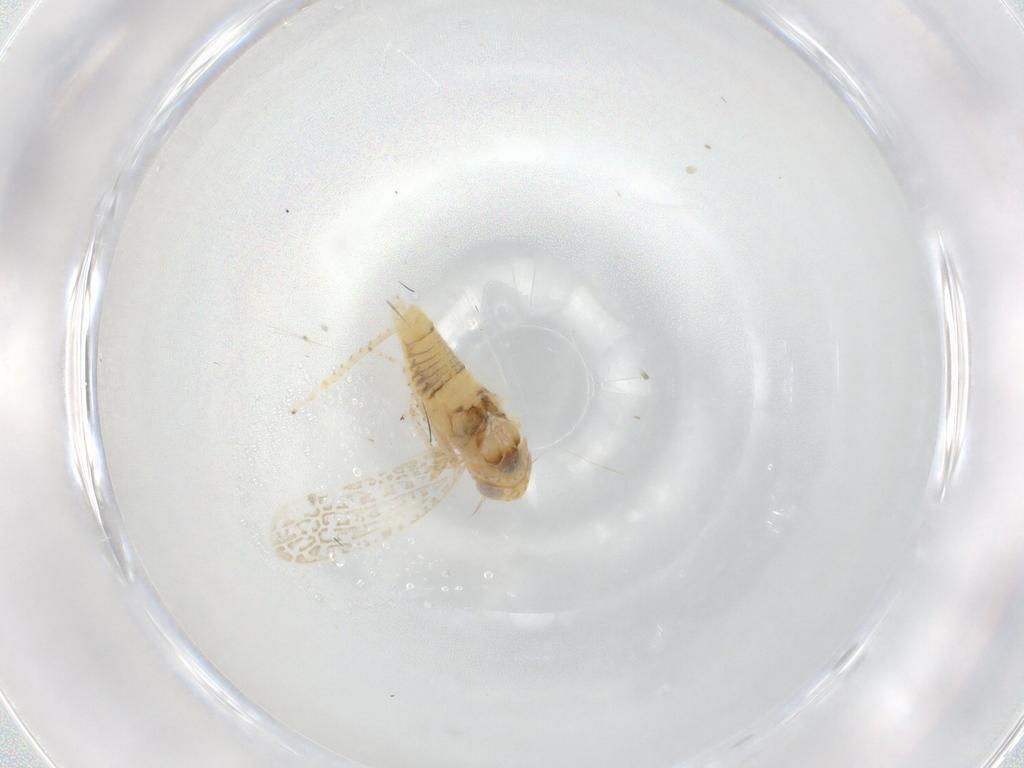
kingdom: Animalia
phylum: Arthropoda
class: Insecta
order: Hemiptera
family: Cicadellidae
